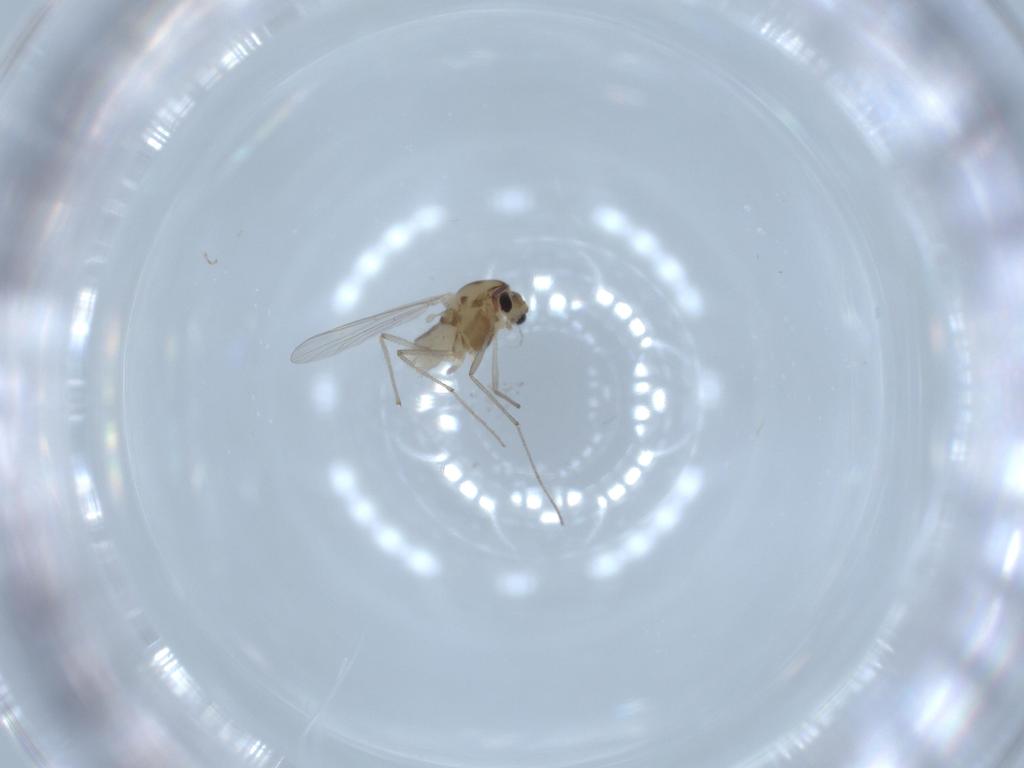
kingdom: Animalia
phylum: Arthropoda
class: Insecta
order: Diptera
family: Chironomidae
